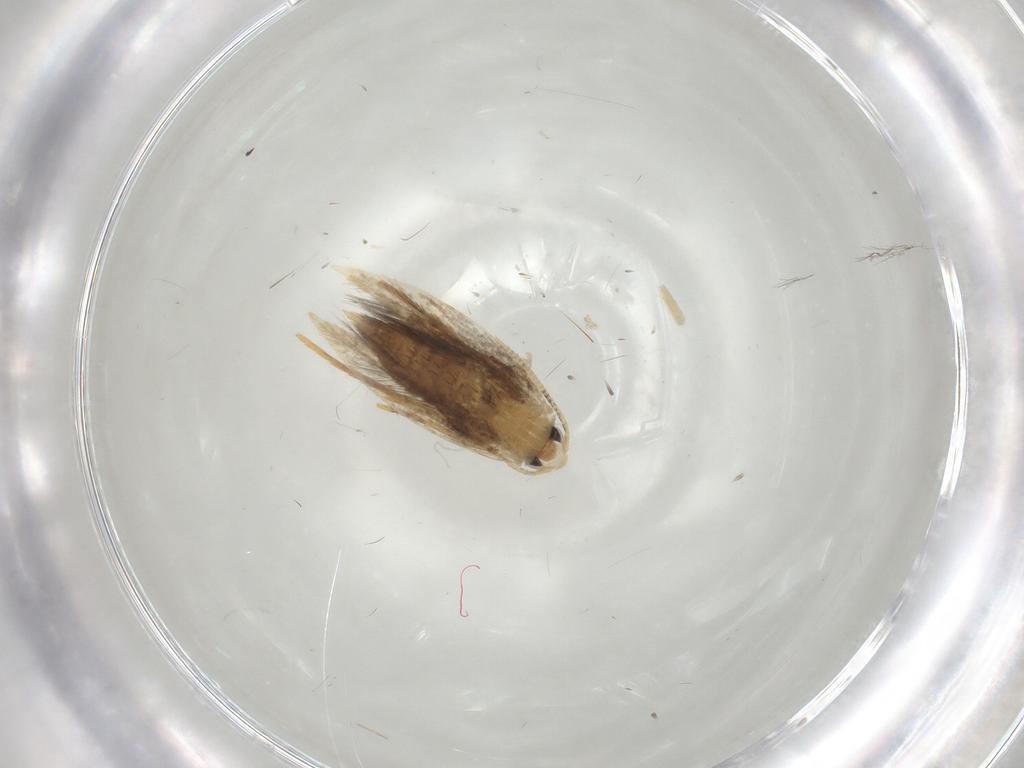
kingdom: Animalia
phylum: Arthropoda
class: Insecta
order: Lepidoptera
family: Tineidae
